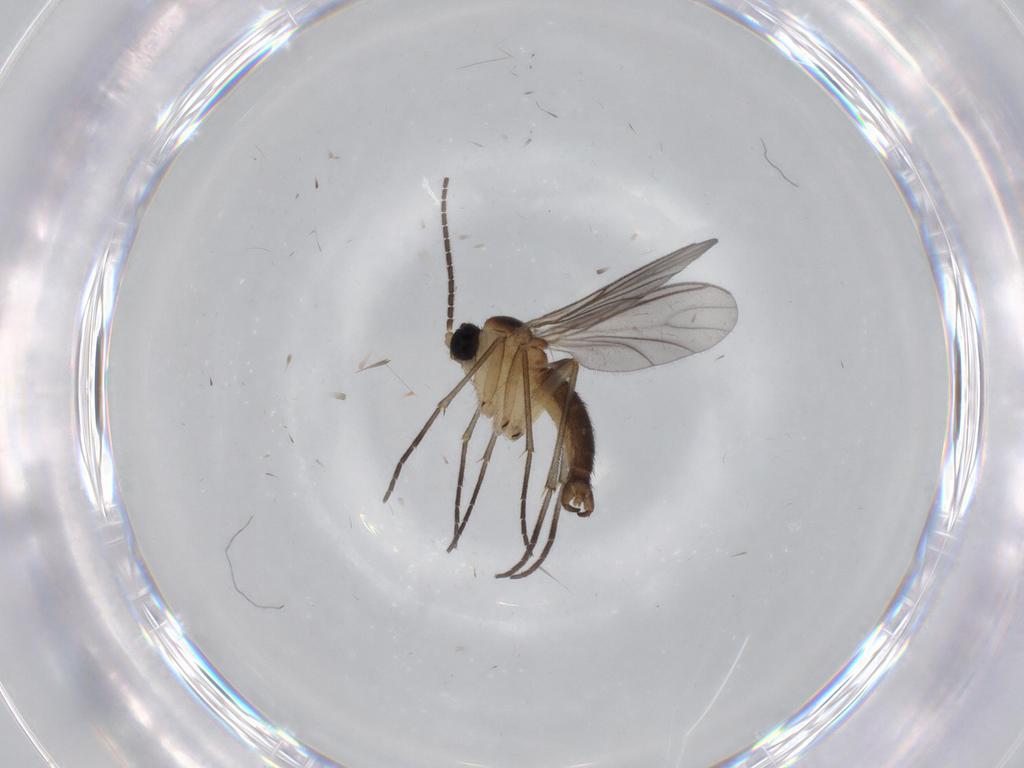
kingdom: Animalia
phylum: Arthropoda
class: Insecta
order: Diptera
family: Sciaridae
